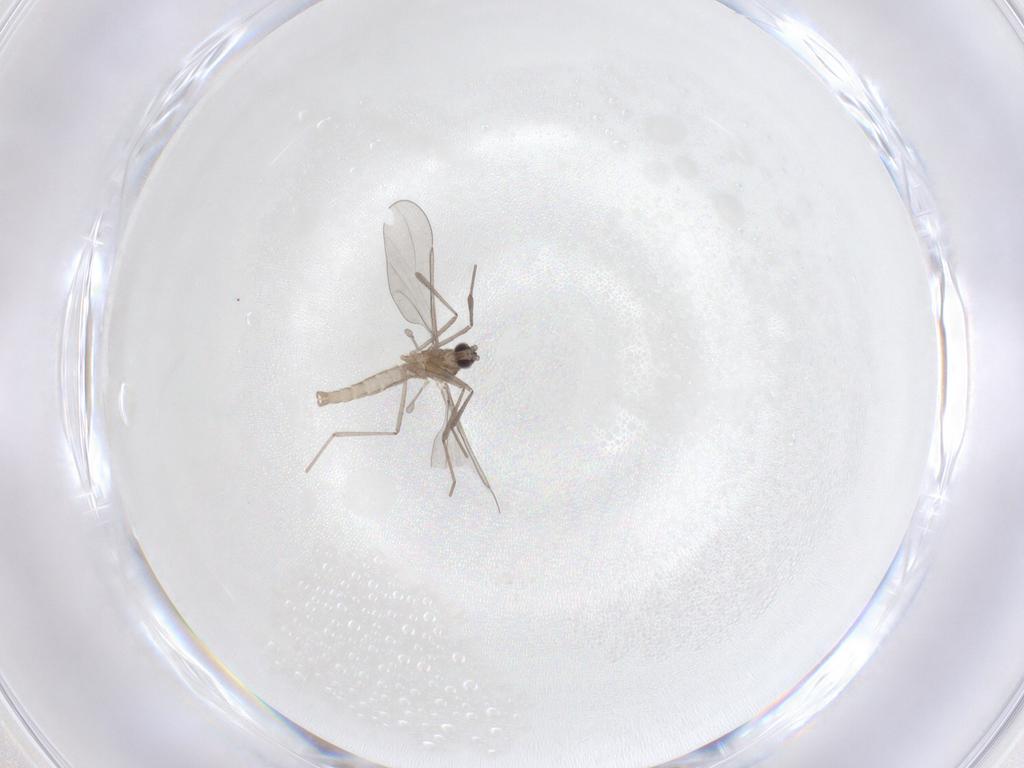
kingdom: Animalia
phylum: Arthropoda
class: Insecta
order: Diptera
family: Cecidomyiidae
